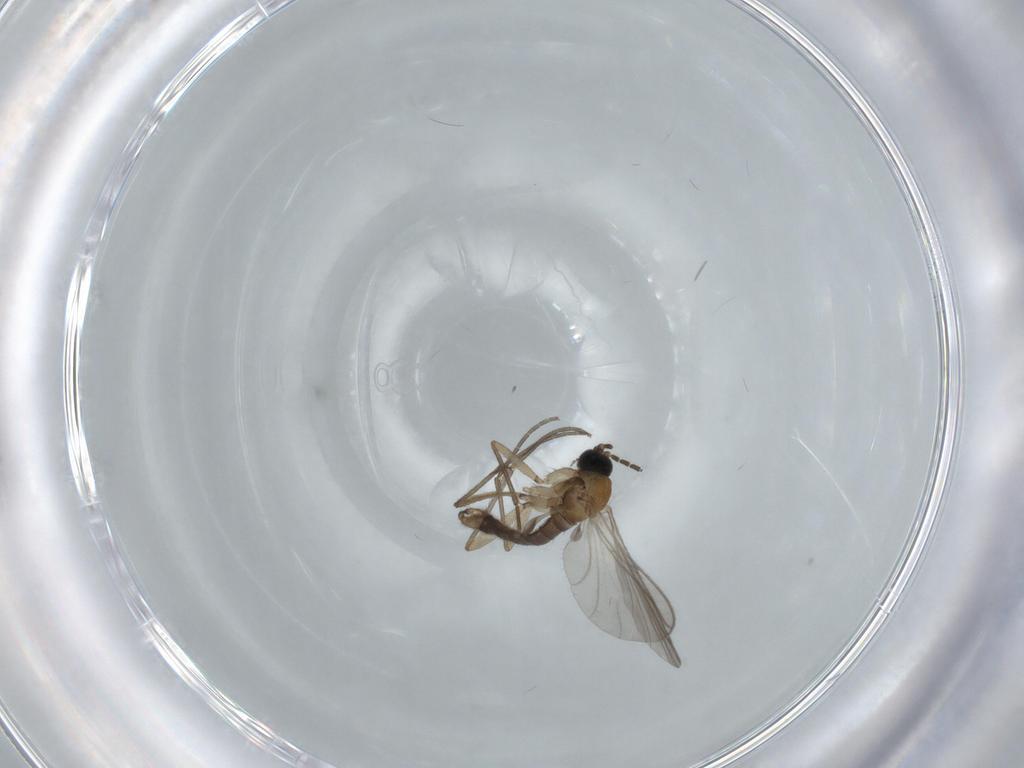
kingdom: Animalia
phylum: Arthropoda
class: Insecta
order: Diptera
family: Sciaridae
